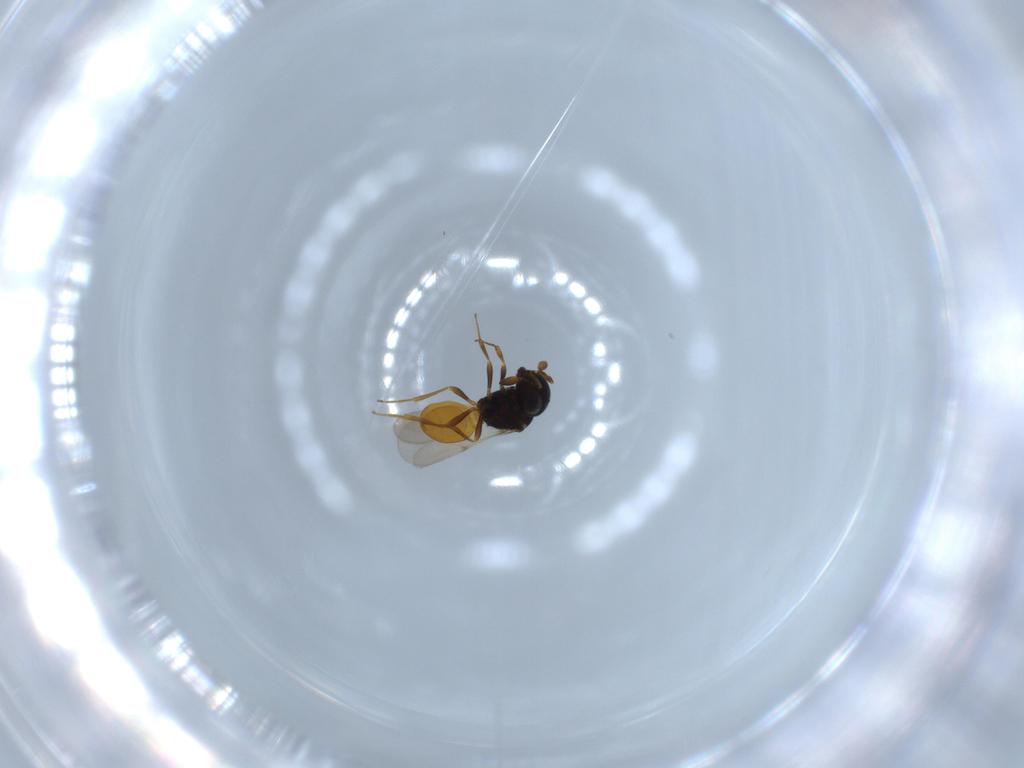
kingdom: Animalia
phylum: Arthropoda
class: Insecta
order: Hymenoptera
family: Scelionidae
